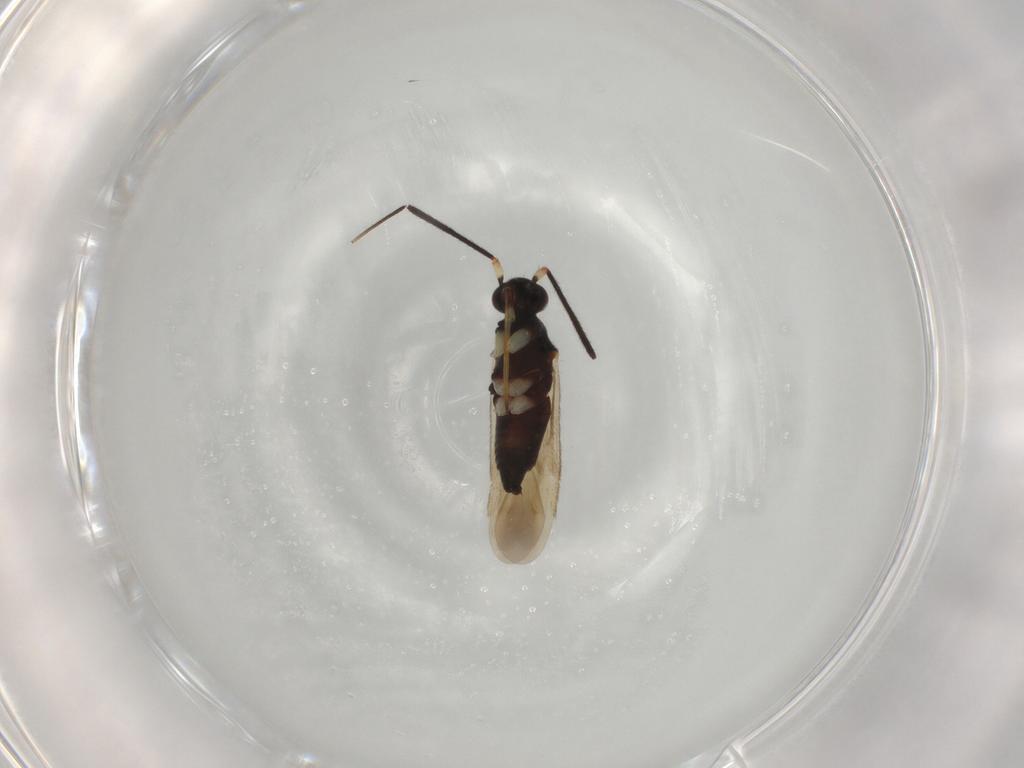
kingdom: Animalia
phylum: Arthropoda
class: Insecta
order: Hemiptera
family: Miridae
